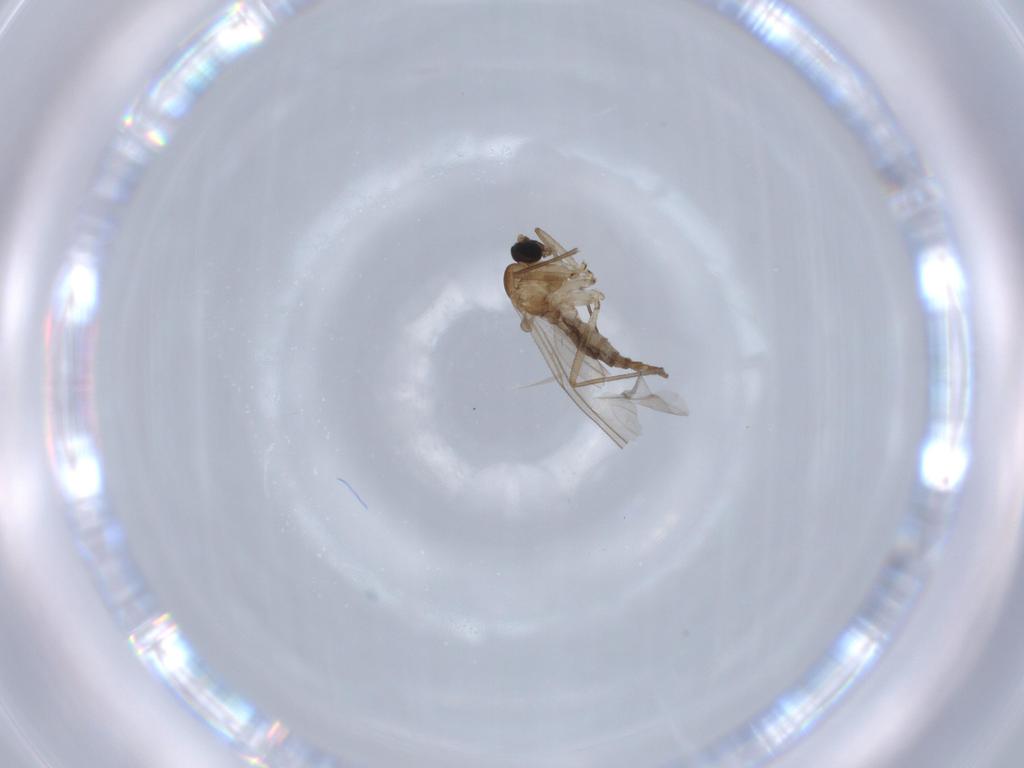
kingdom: Animalia
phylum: Arthropoda
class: Insecta
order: Diptera
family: Sciaridae
